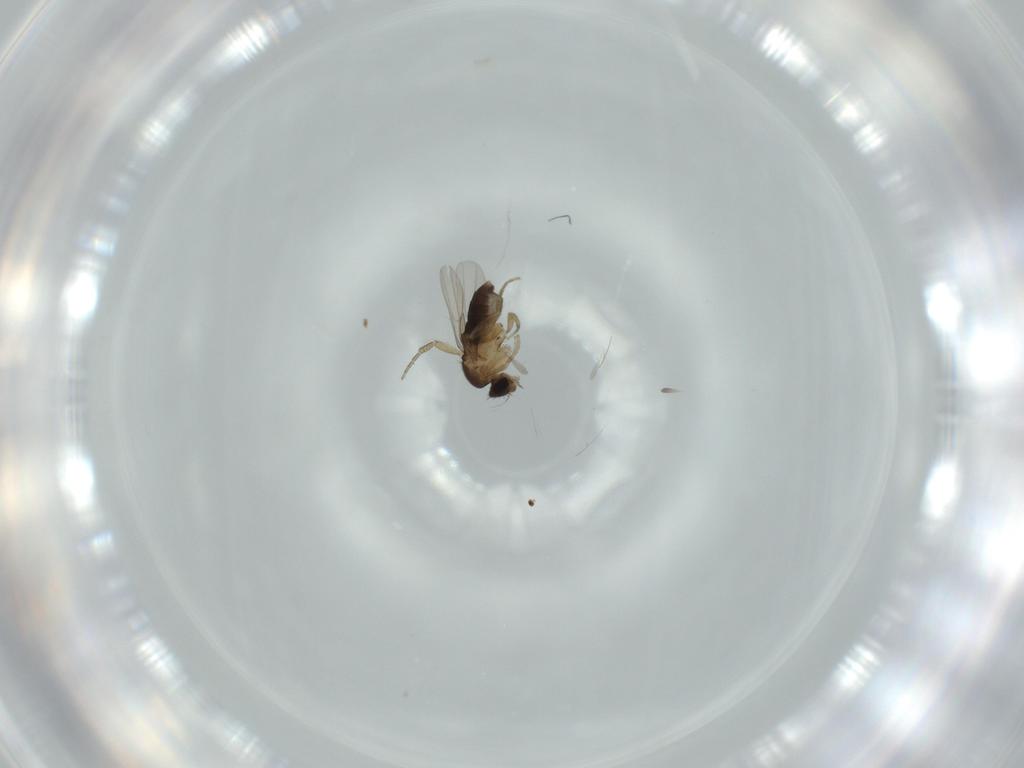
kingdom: Animalia
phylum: Arthropoda
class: Insecta
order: Diptera
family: Phoridae
